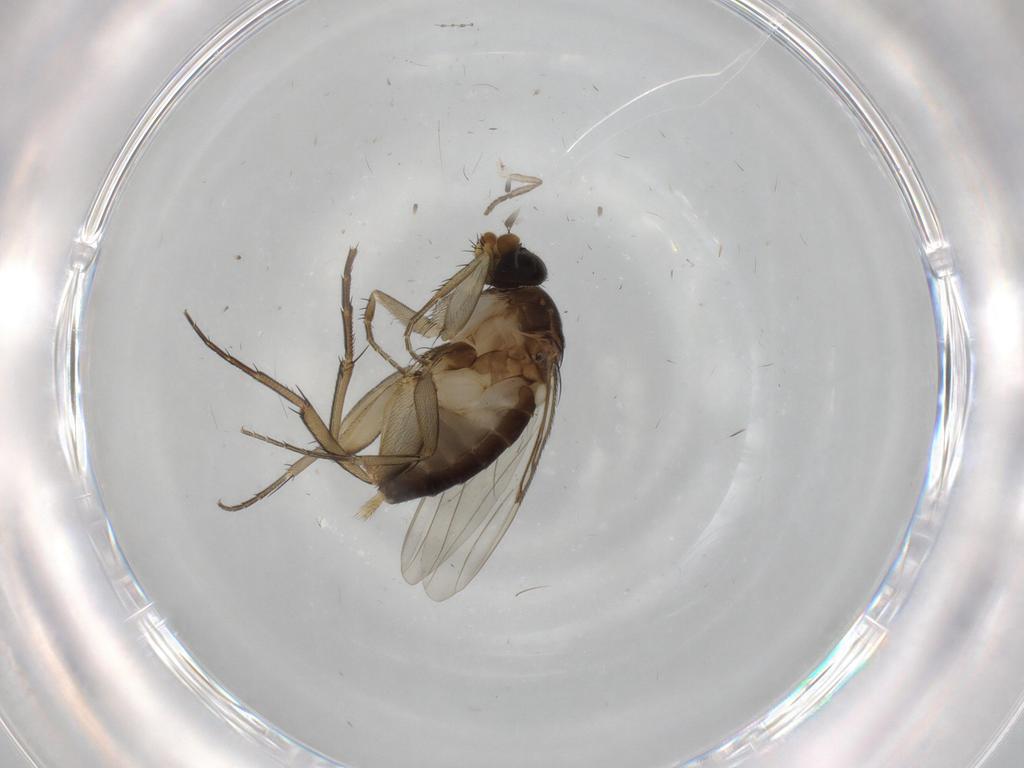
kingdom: Animalia
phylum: Arthropoda
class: Insecta
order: Diptera
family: Phoridae
